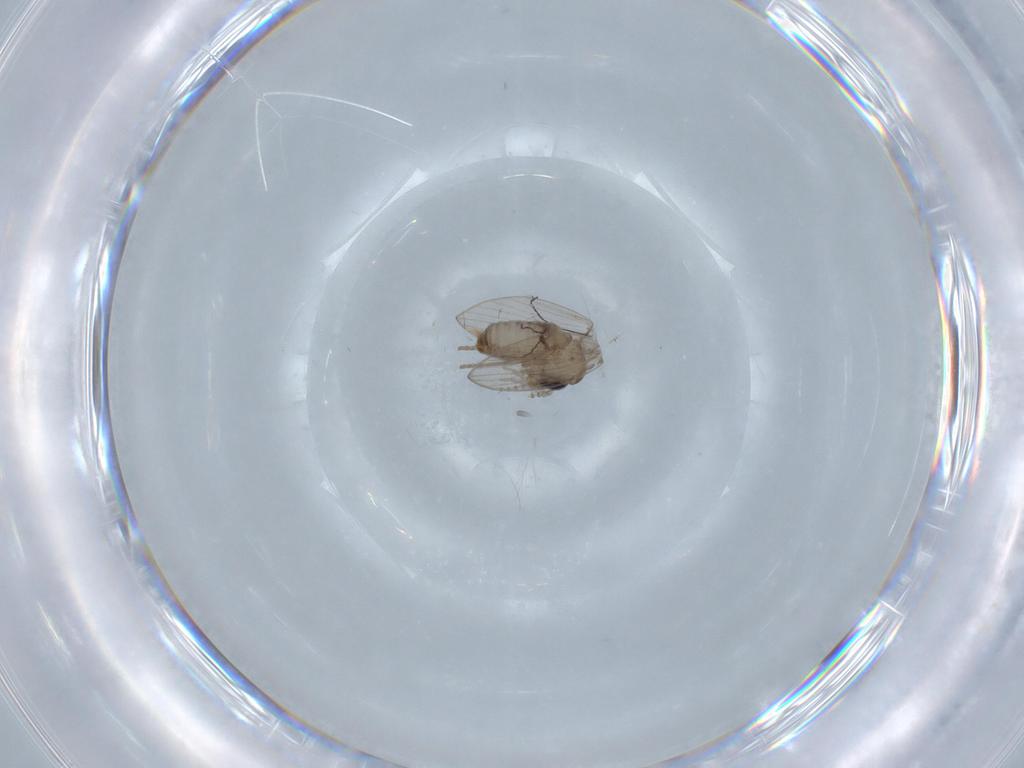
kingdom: Animalia
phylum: Arthropoda
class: Insecta
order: Diptera
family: Psychodidae
